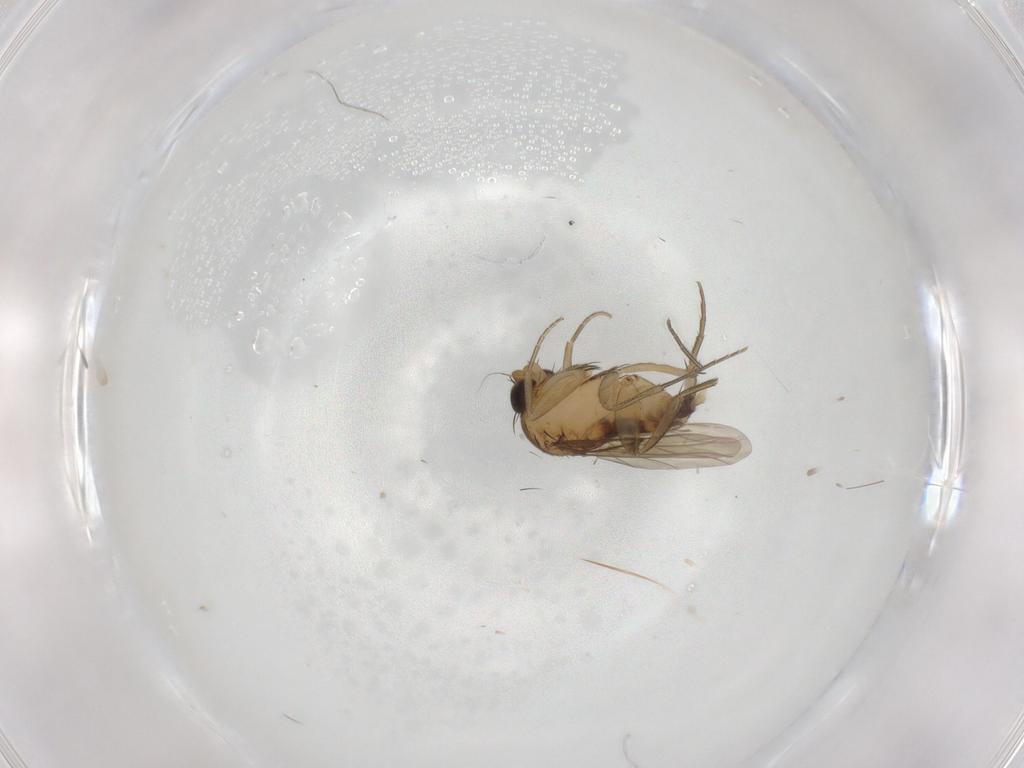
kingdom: Animalia
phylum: Arthropoda
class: Insecta
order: Diptera
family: Phoridae
